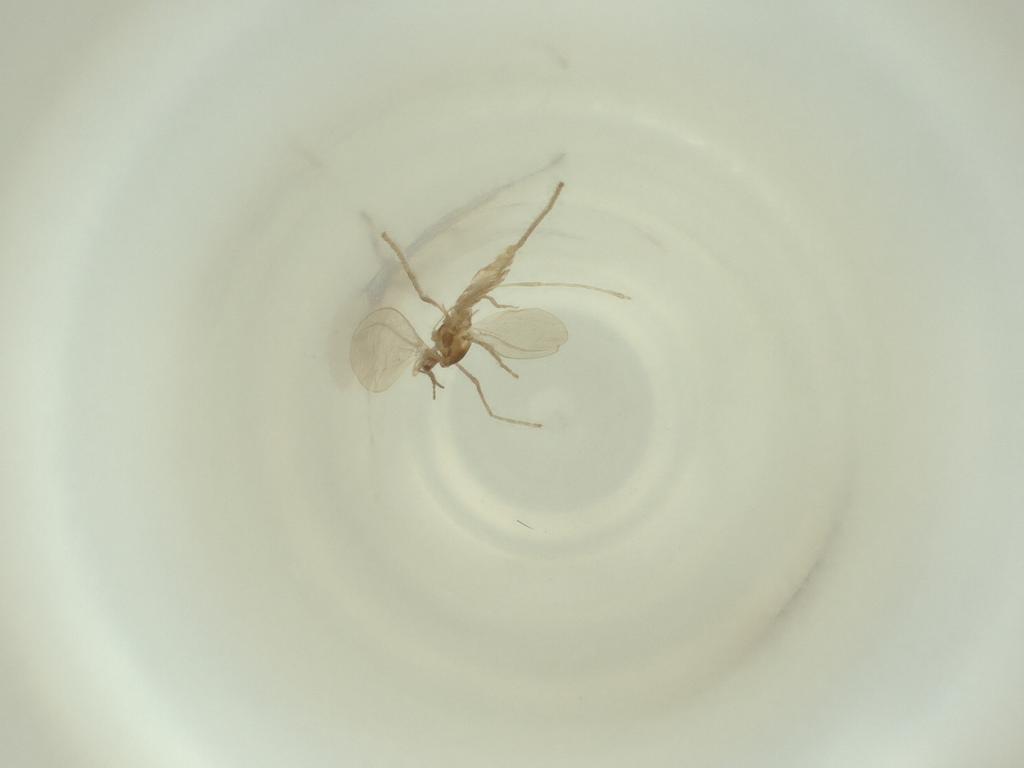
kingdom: Animalia
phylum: Arthropoda
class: Insecta
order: Diptera
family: Cecidomyiidae
